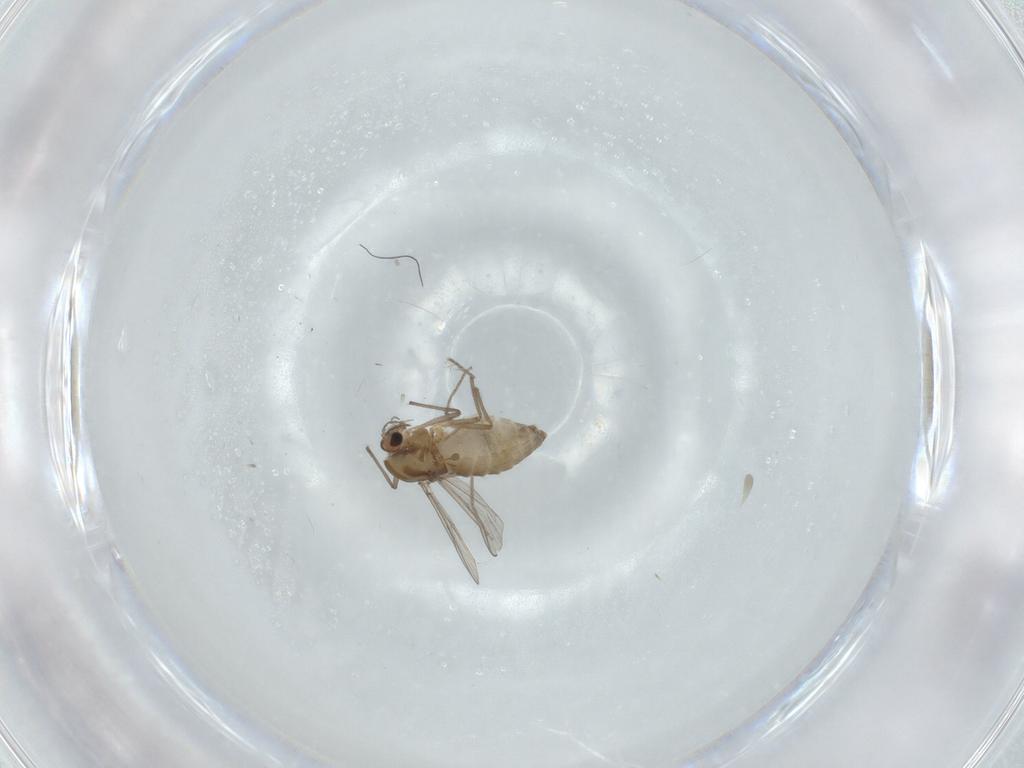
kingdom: Animalia
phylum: Arthropoda
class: Insecta
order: Diptera
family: Chironomidae
